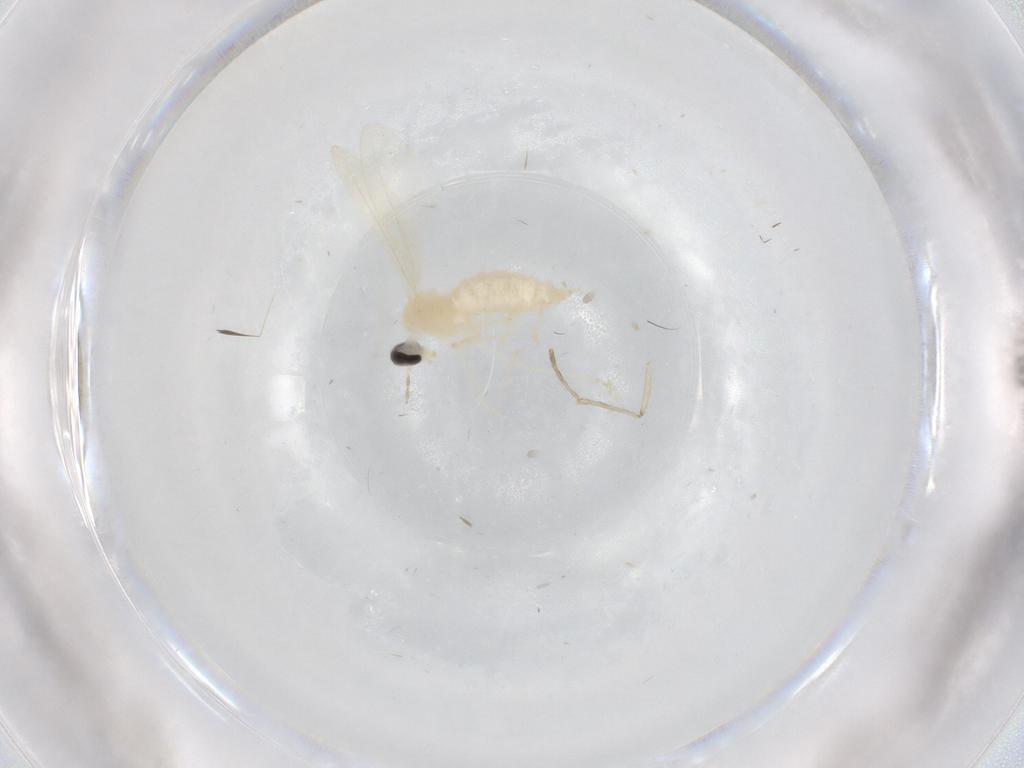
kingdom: Animalia
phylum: Arthropoda
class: Insecta
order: Diptera
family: Cecidomyiidae
